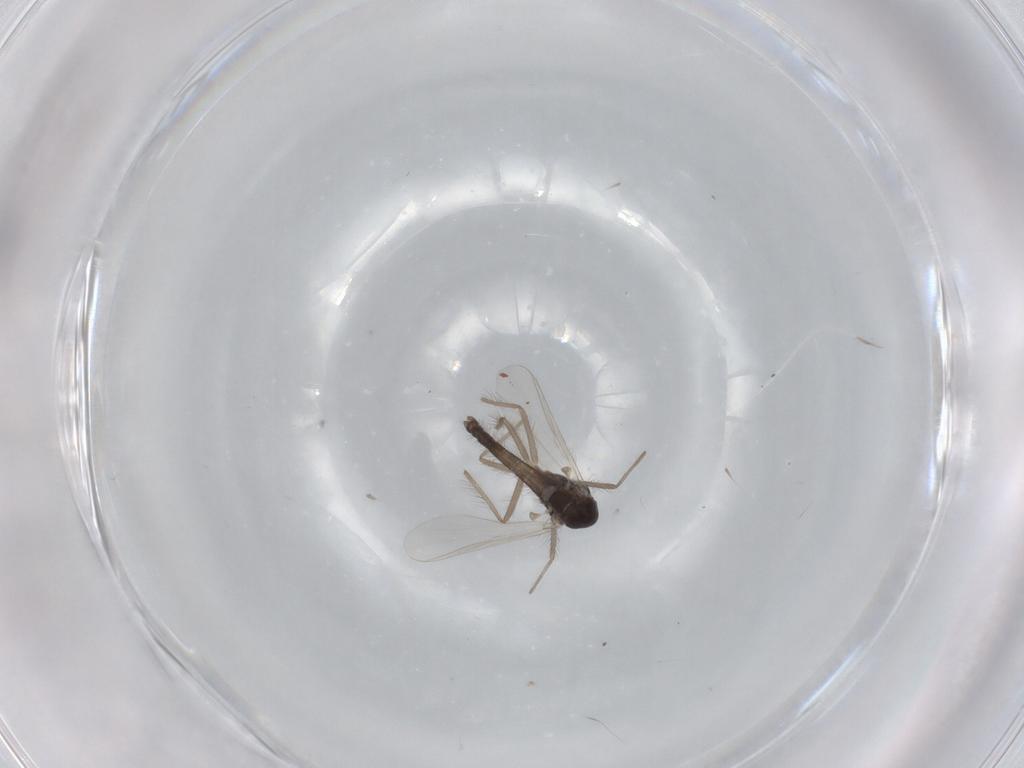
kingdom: Animalia
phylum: Arthropoda
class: Insecta
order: Diptera
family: Chironomidae
